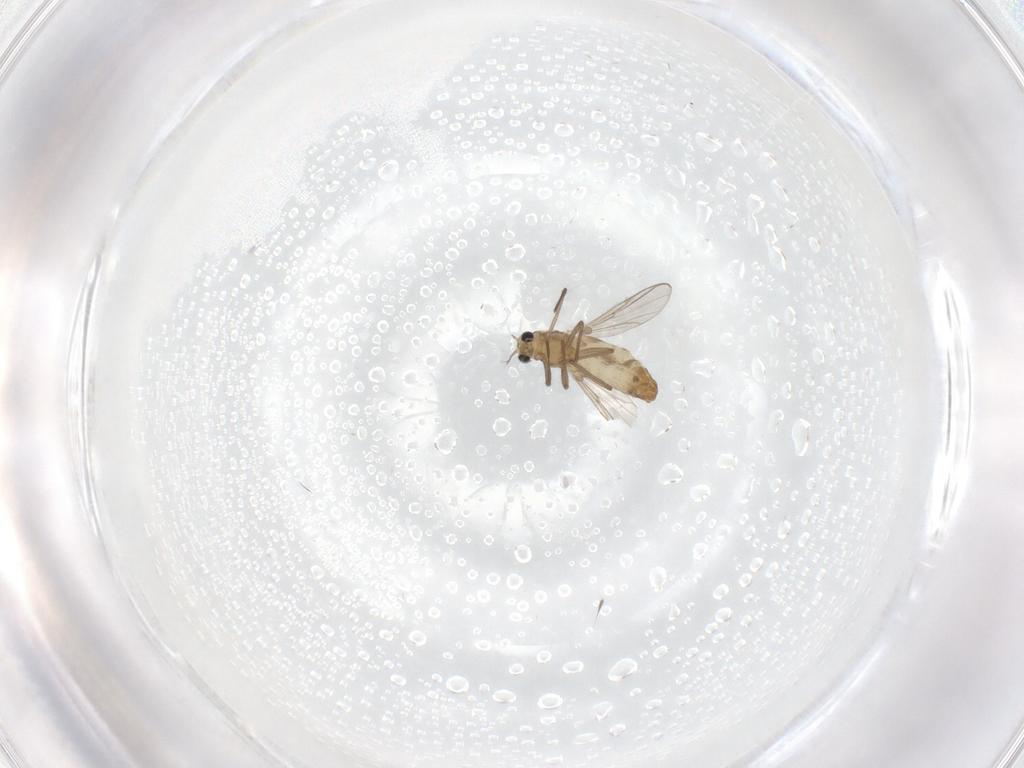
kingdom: Animalia
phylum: Arthropoda
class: Insecta
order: Diptera
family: Chironomidae
